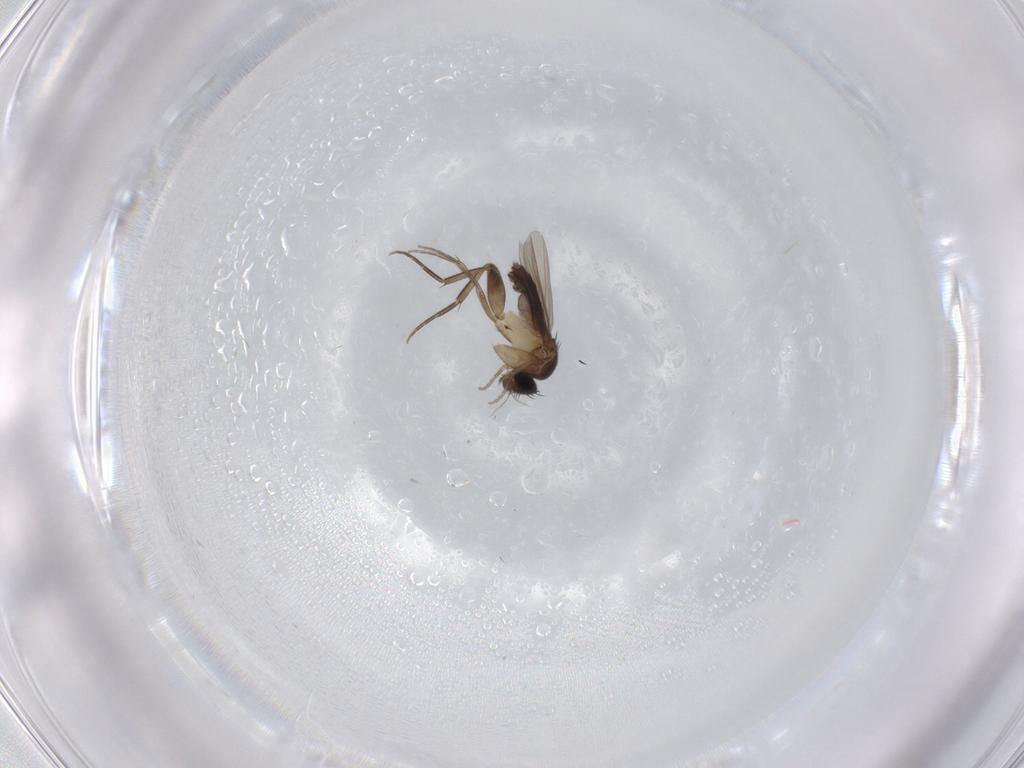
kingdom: Animalia
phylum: Arthropoda
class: Insecta
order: Diptera
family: Phoridae
